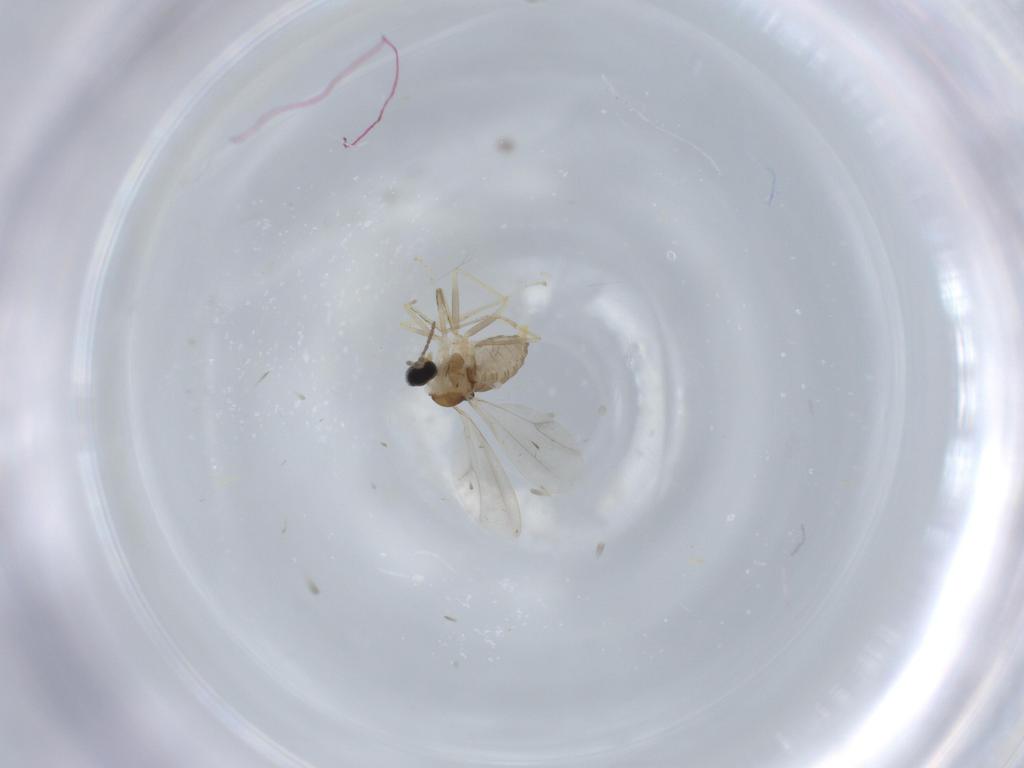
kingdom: Animalia
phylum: Arthropoda
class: Insecta
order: Diptera
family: Cecidomyiidae
